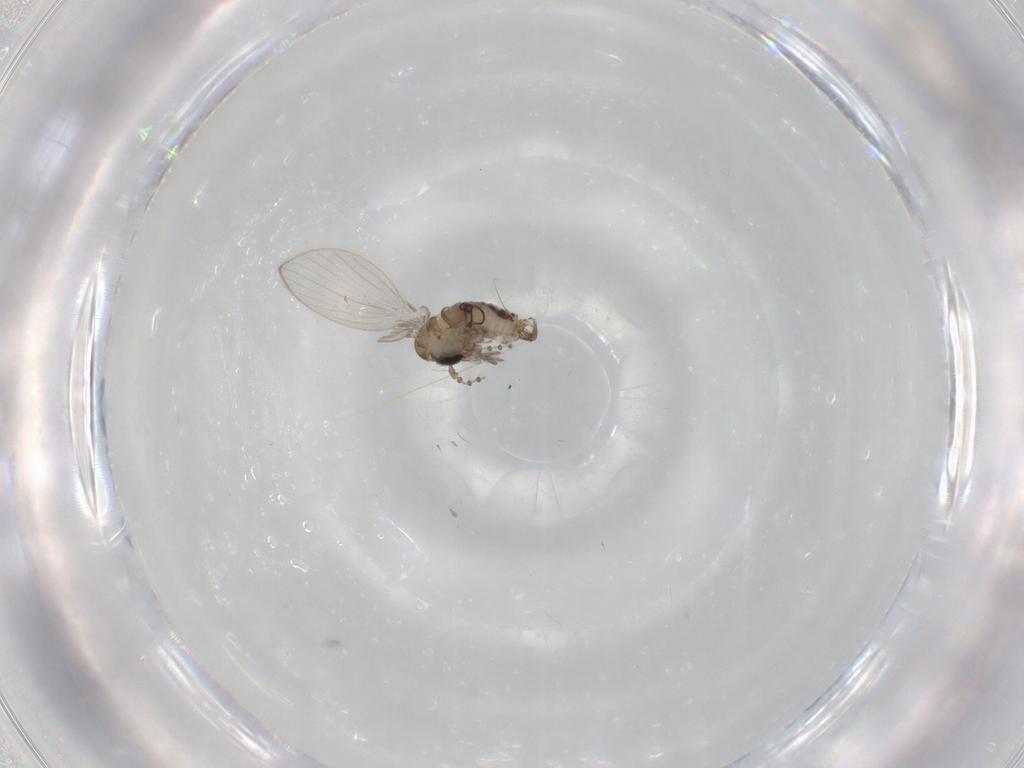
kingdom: Animalia
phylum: Arthropoda
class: Insecta
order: Diptera
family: Psychodidae
